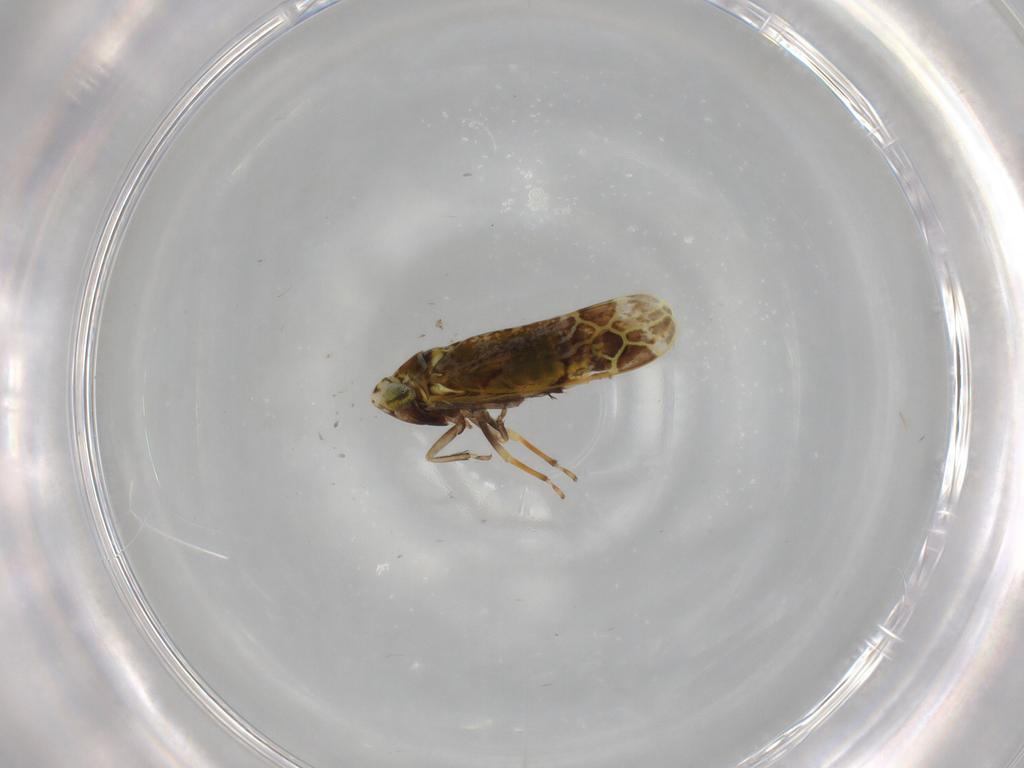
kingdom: Animalia
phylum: Arthropoda
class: Insecta
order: Hemiptera
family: Cicadellidae
